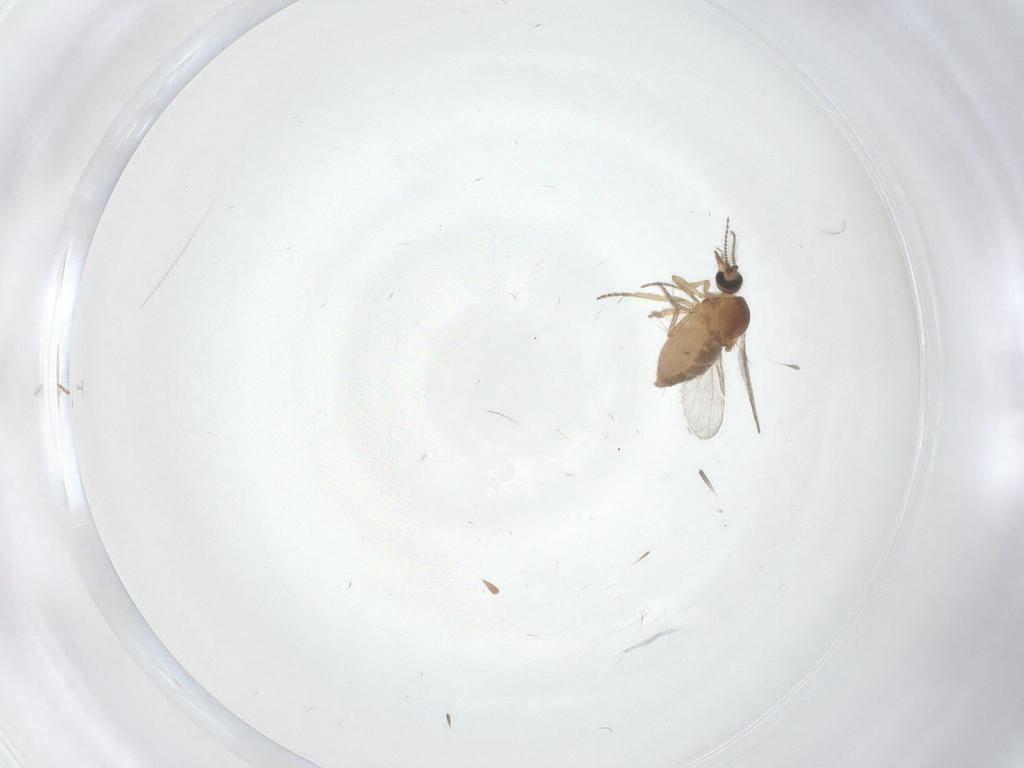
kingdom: Animalia
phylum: Arthropoda
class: Insecta
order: Diptera
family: Ceratopogonidae
